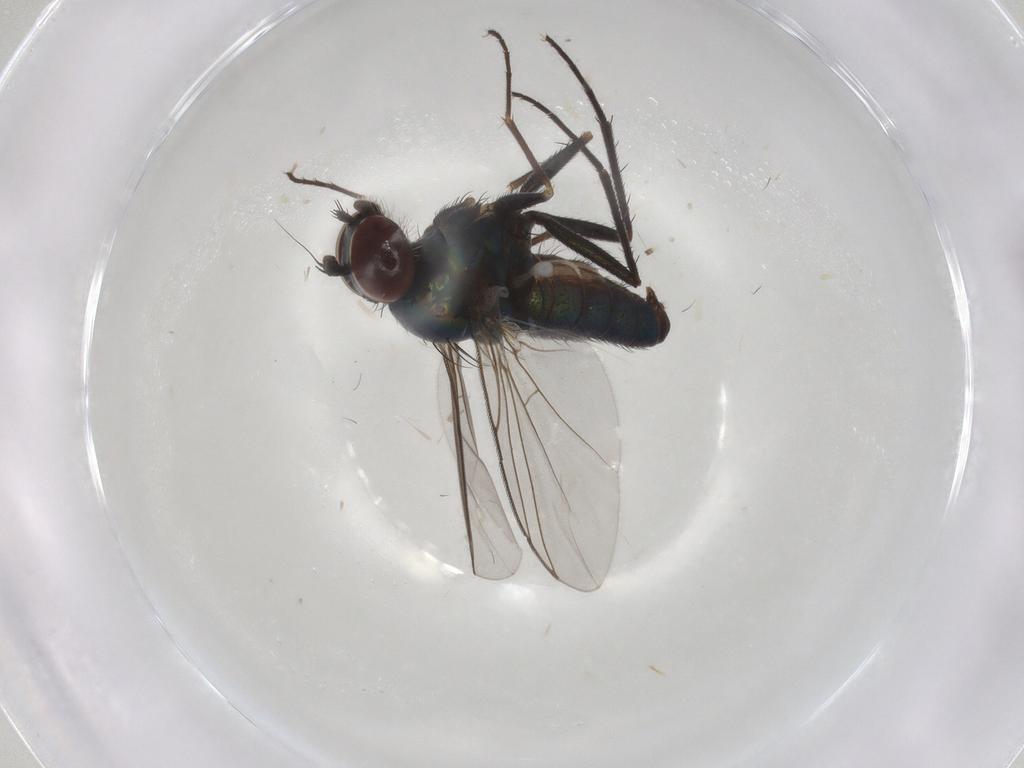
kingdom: Animalia
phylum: Arthropoda
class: Insecta
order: Diptera
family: Dolichopodidae
